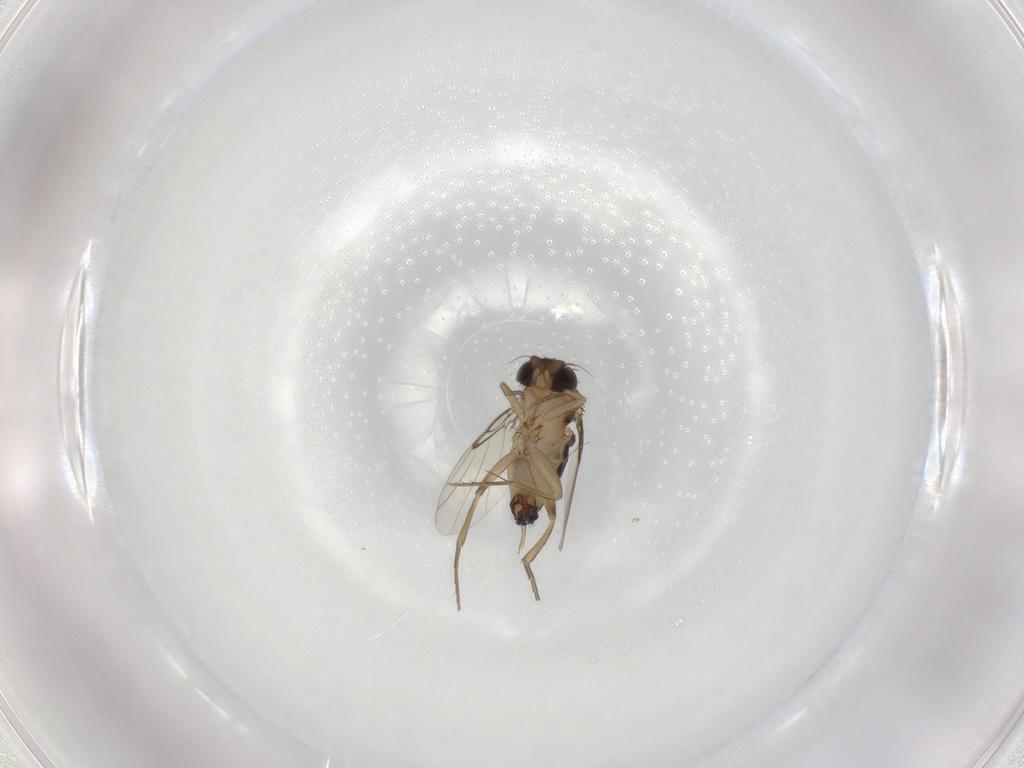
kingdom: Animalia
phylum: Arthropoda
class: Insecta
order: Diptera
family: Phoridae
